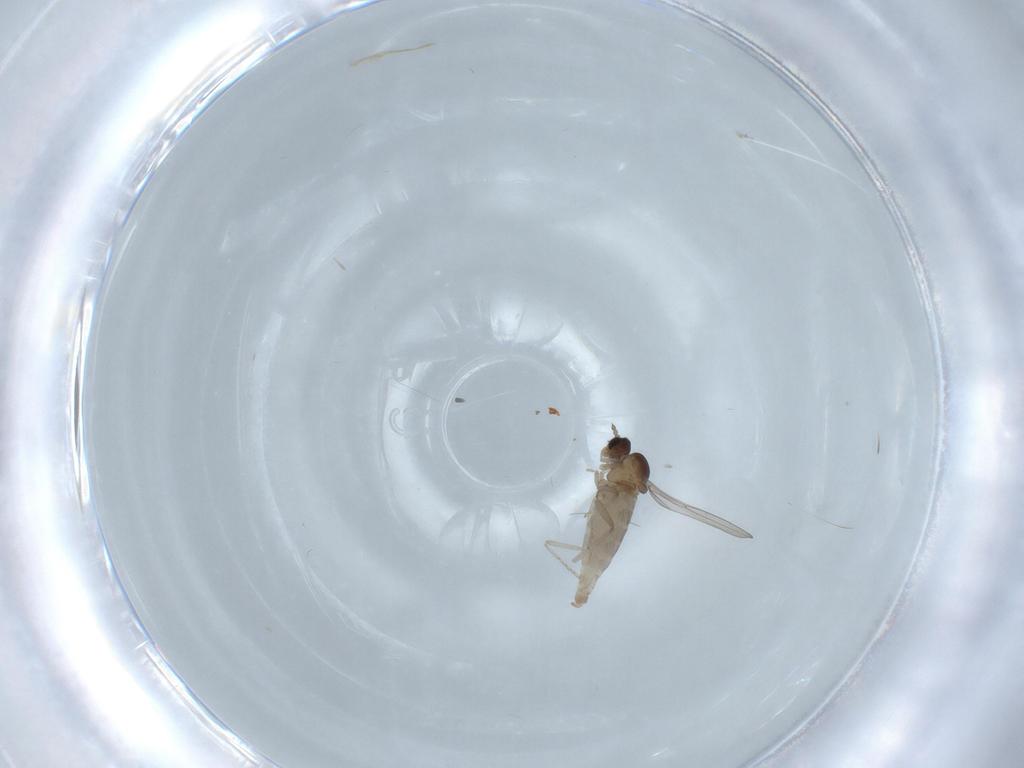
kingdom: Animalia
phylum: Arthropoda
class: Insecta
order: Diptera
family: Cecidomyiidae
